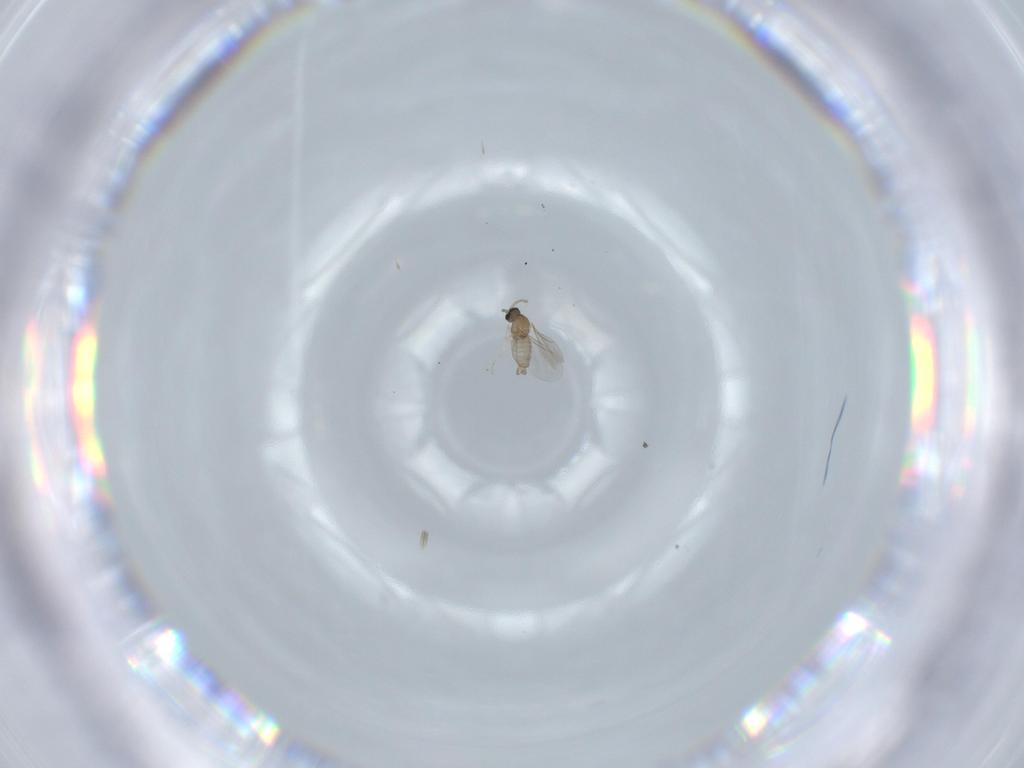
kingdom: Animalia
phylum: Arthropoda
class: Insecta
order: Diptera
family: Cecidomyiidae
